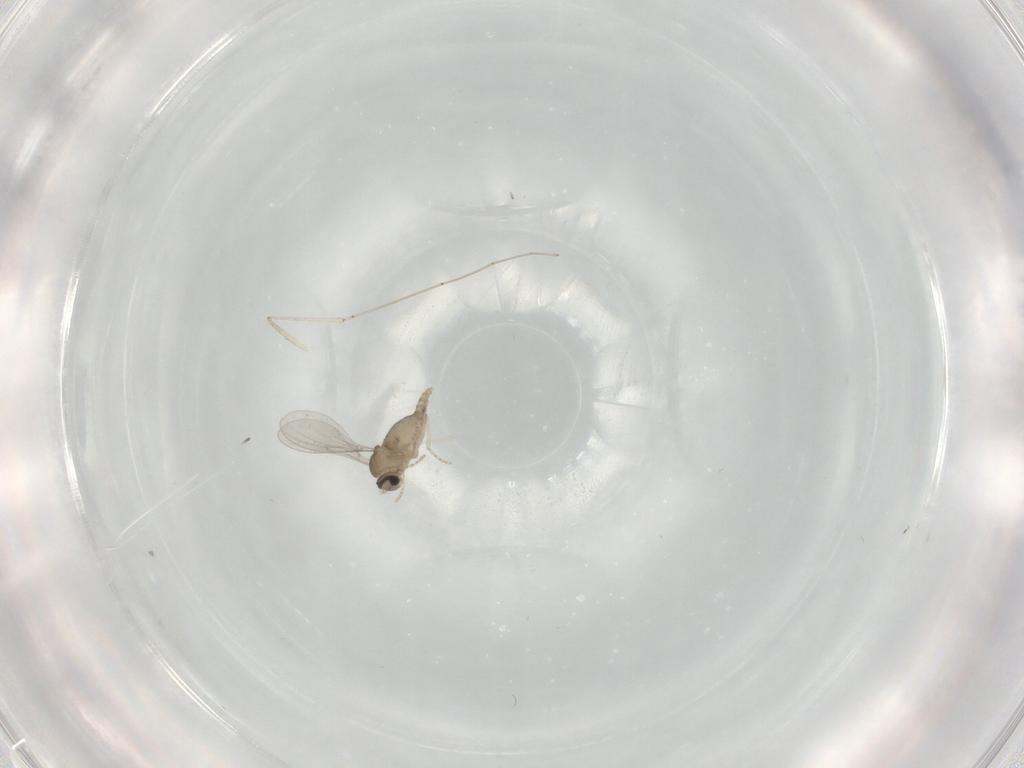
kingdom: Animalia
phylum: Arthropoda
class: Insecta
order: Diptera
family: Cecidomyiidae
